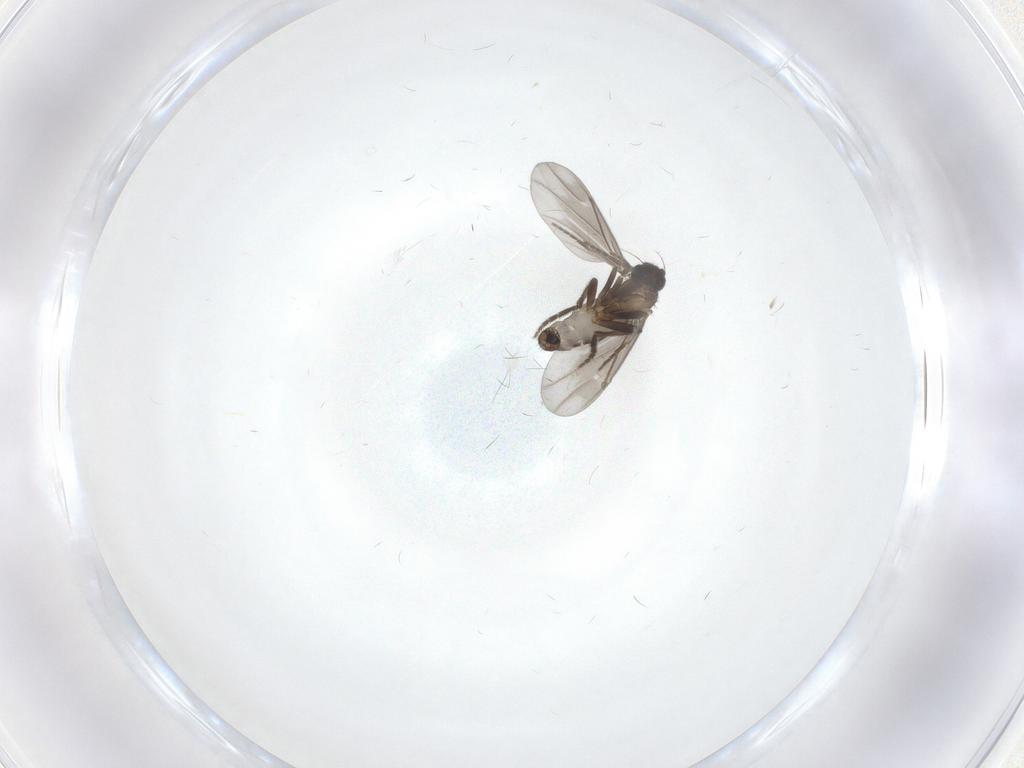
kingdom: Animalia
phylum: Arthropoda
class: Insecta
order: Diptera
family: Phoridae
